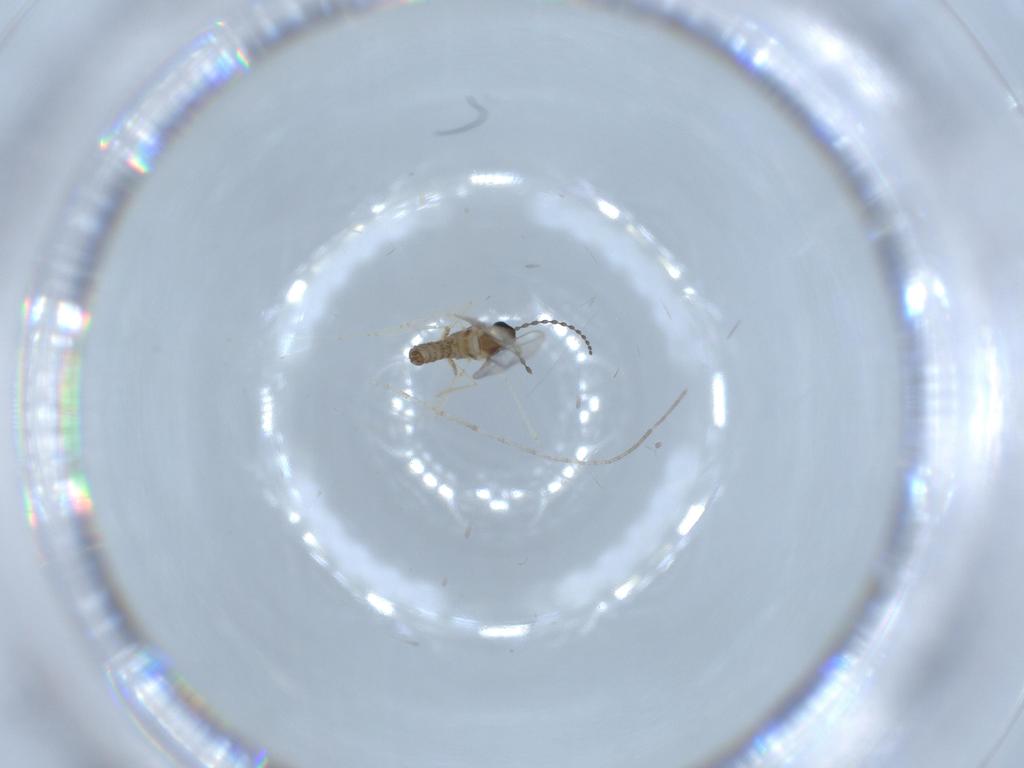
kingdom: Animalia
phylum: Arthropoda
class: Insecta
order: Diptera
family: Cecidomyiidae
